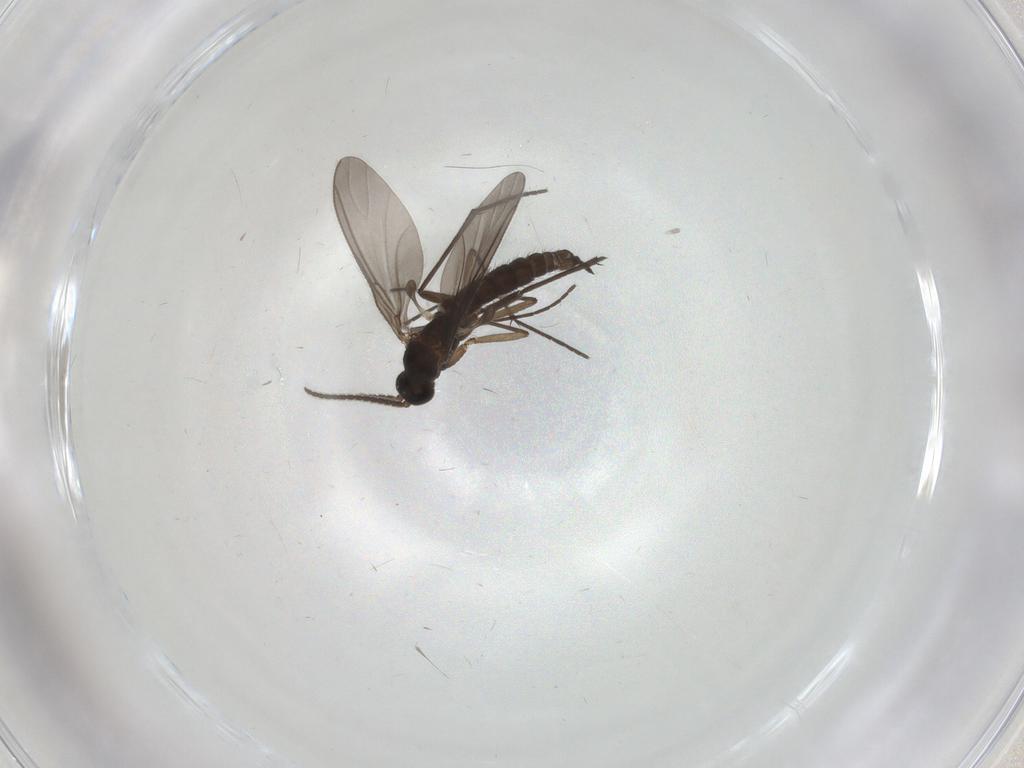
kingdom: Animalia
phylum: Arthropoda
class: Insecta
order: Diptera
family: Sciaridae
